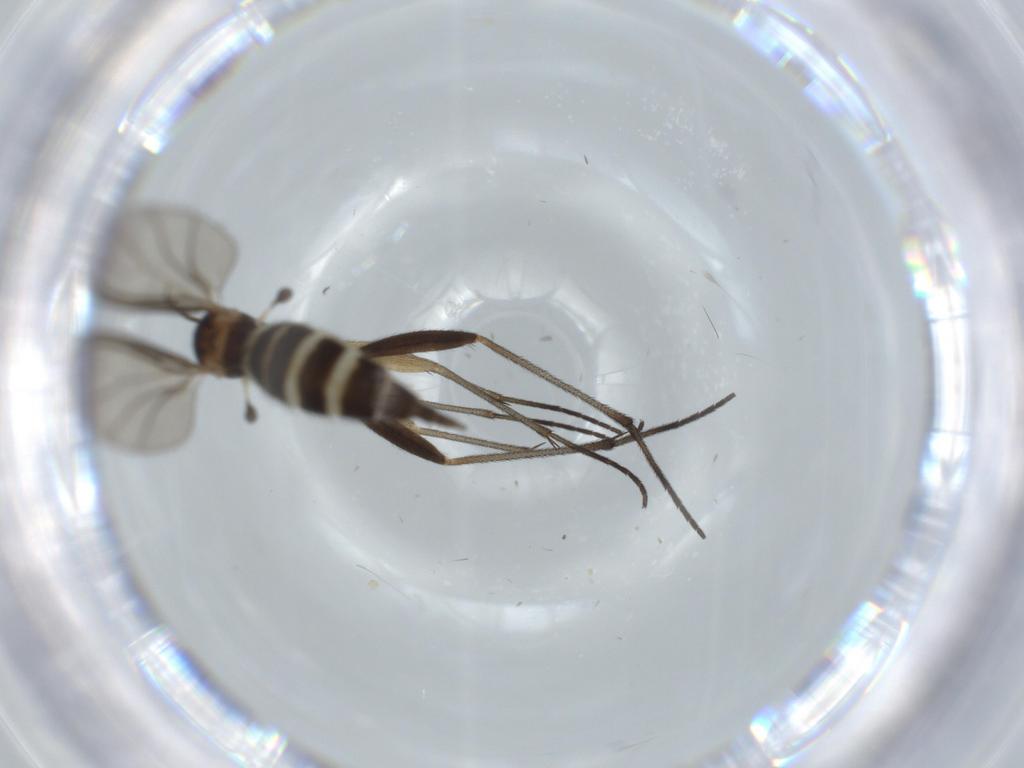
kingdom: Animalia
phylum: Arthropoda
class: Insecta
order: Diptera
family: Sciaridae
